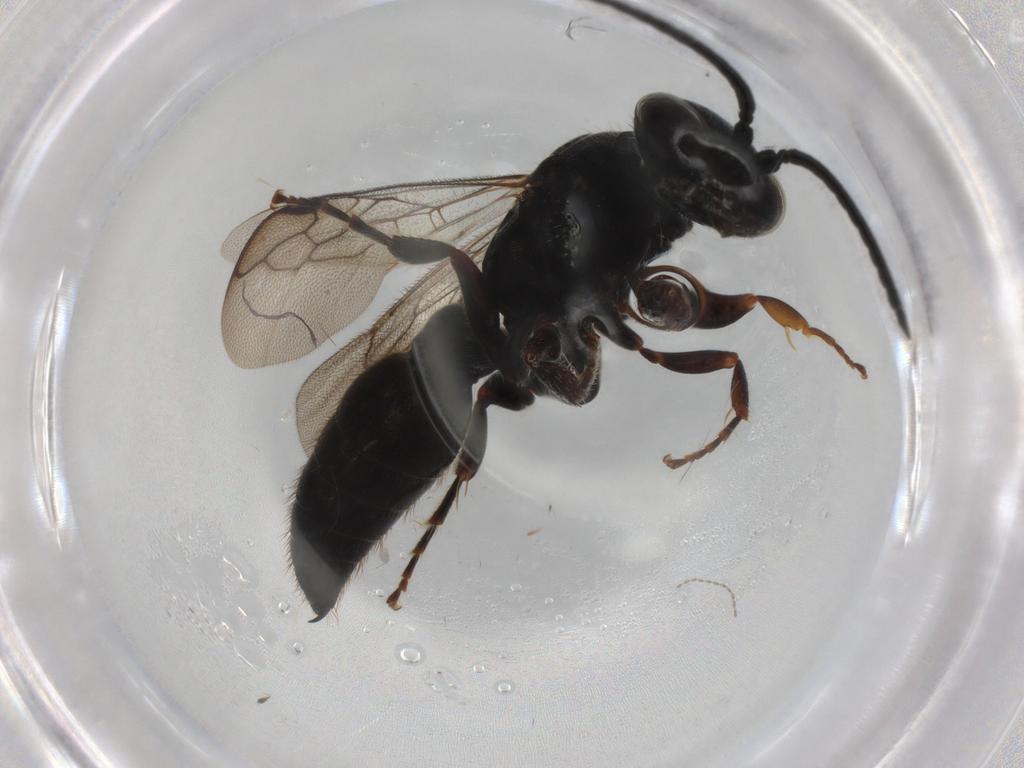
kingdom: Animalia
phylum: Arthropoda
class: Insecta
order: Hymenoptera
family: Tiphiidae
